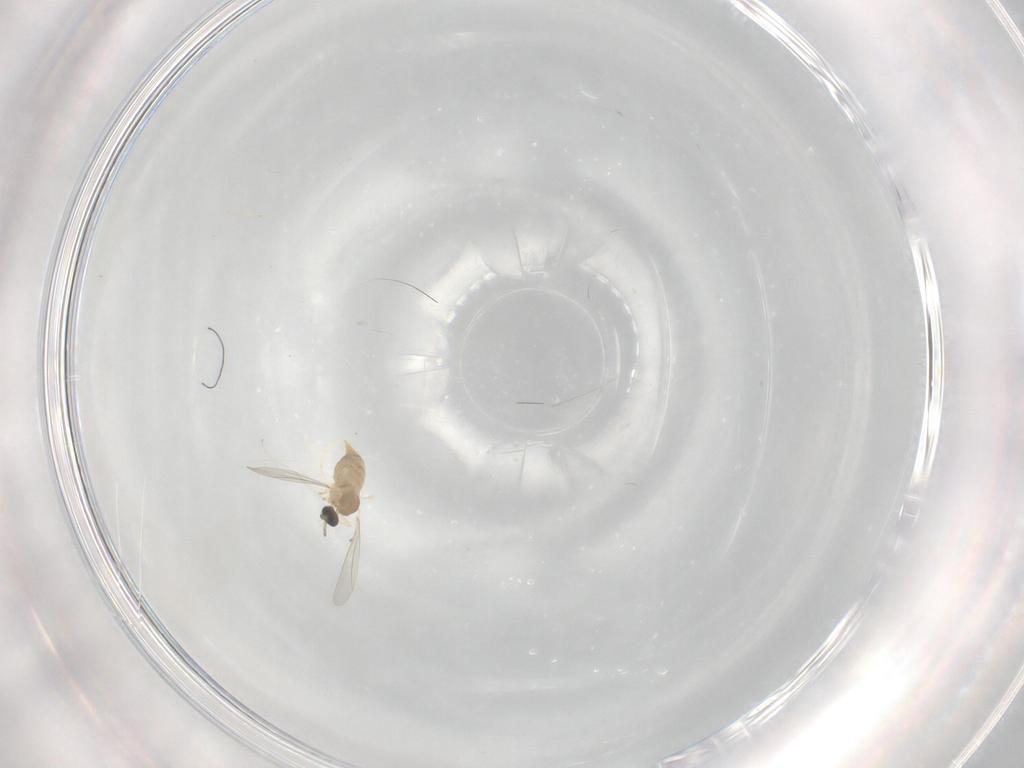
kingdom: Animalia
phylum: Arthropoda
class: Insecta
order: Diptera
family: Cecidomyiidae
